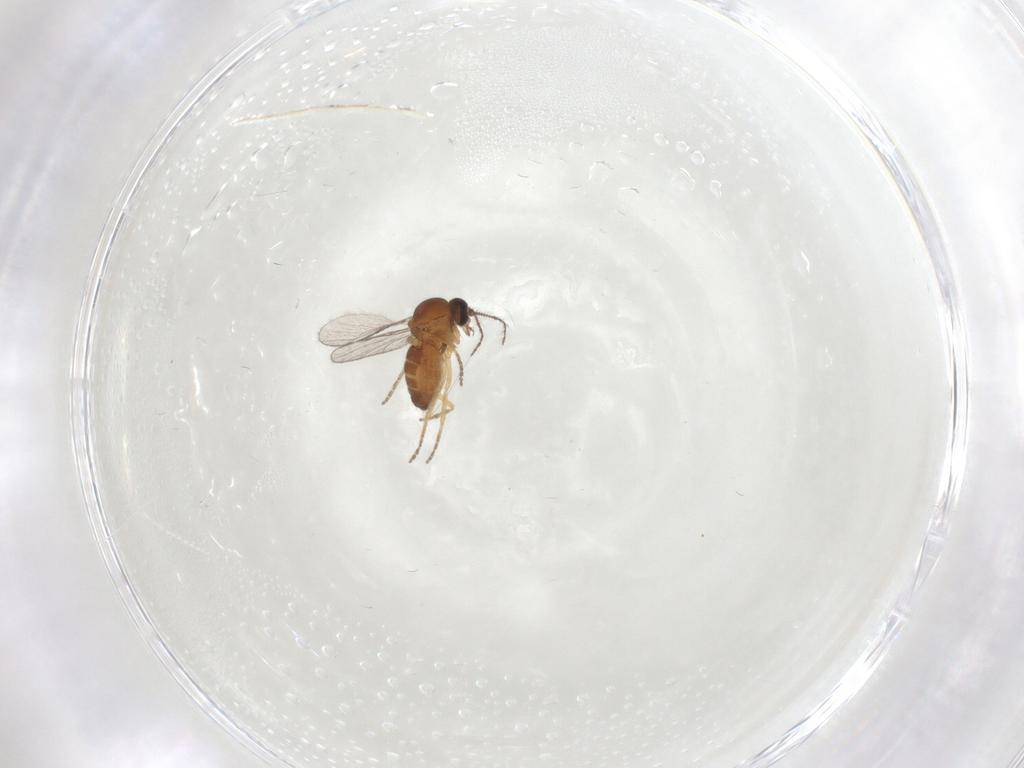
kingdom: Animalia
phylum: Arthropoda
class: Insecta
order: Diptera
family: Ceratopogonidae
